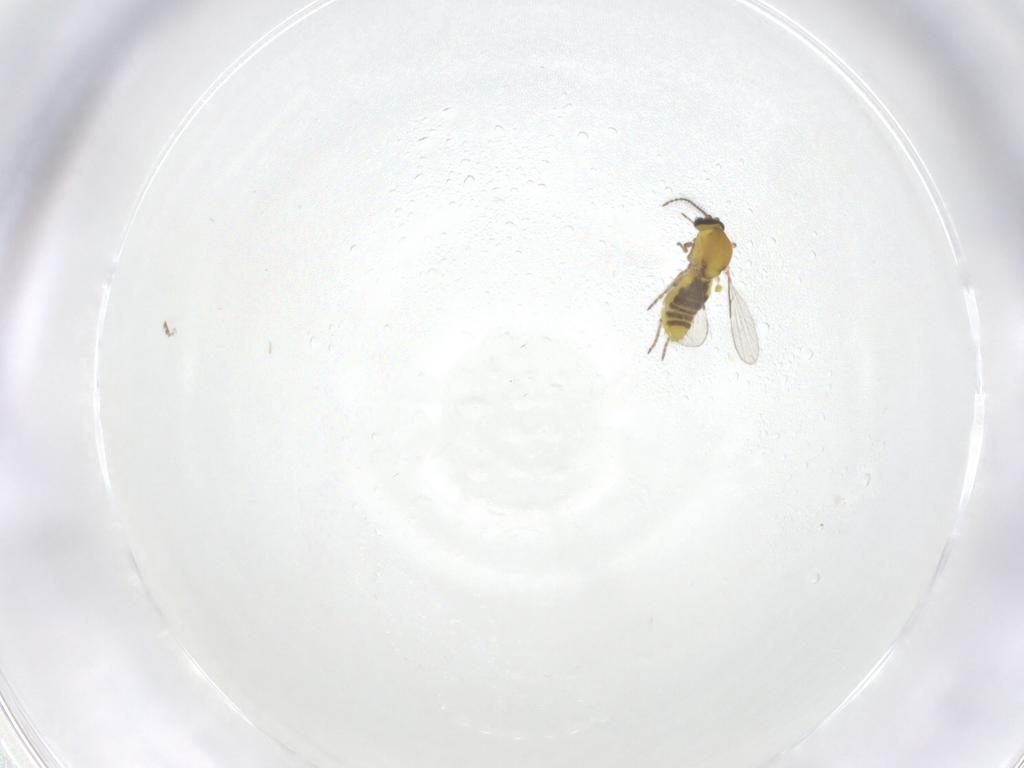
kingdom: Animalia
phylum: Arthropoda
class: Insecta
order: Diptera
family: Ceratopogonidae
